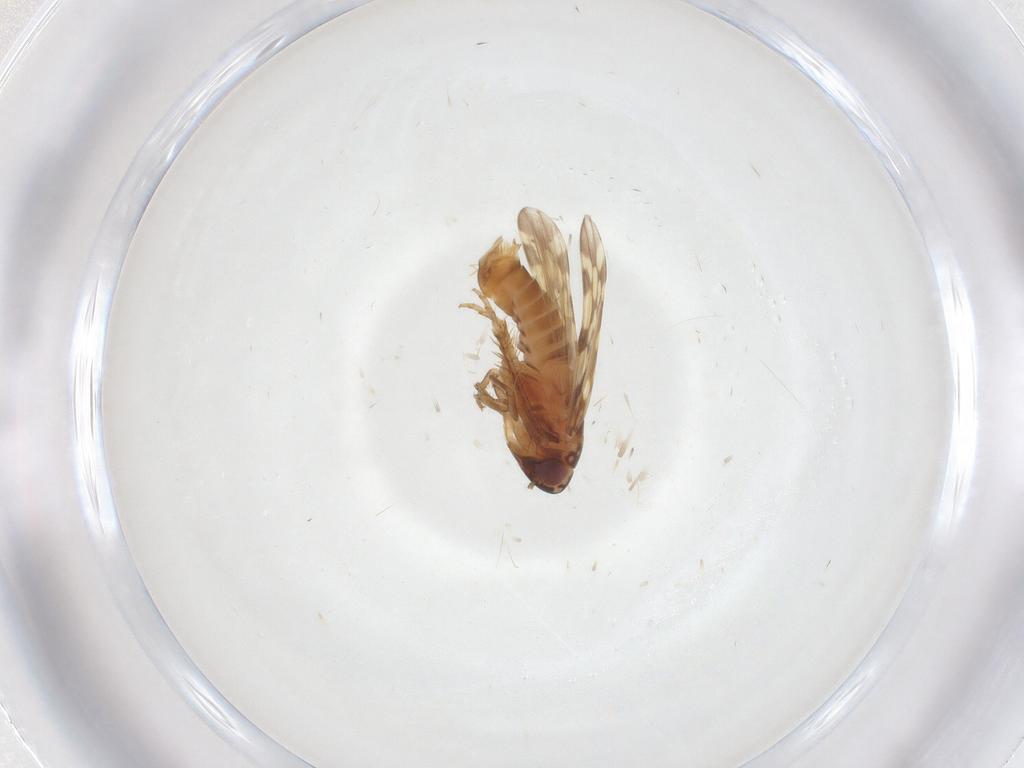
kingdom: Animalia
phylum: Arthropoda
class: Insecta
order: Hemiptera
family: Cicadellidae
